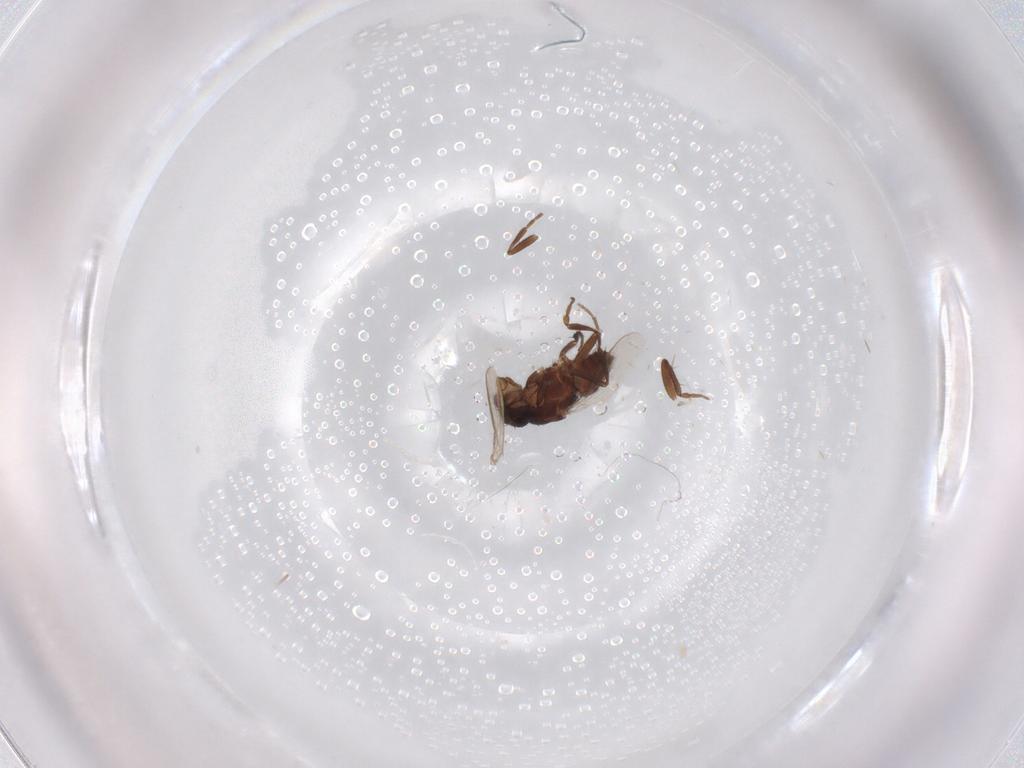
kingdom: Animalia
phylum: Arthropoda
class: Insecta
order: Diptera
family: Sphaeroceridae
